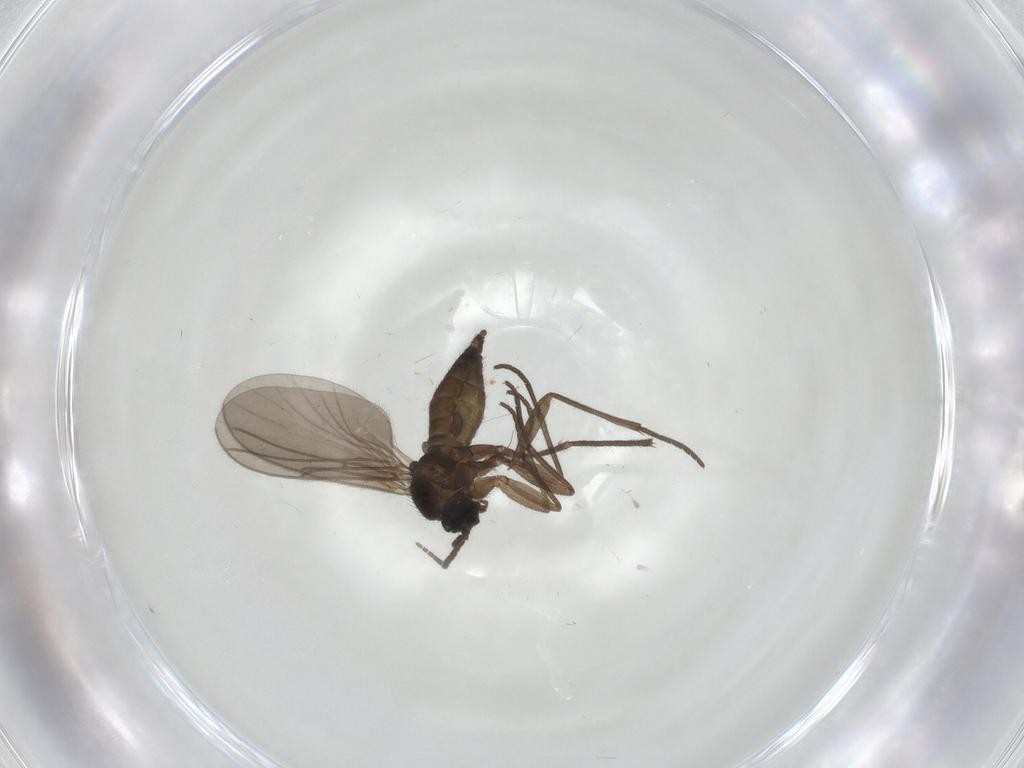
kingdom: Animalia
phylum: Arthropoda
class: Insecta
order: Diptera
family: Sciaridae
